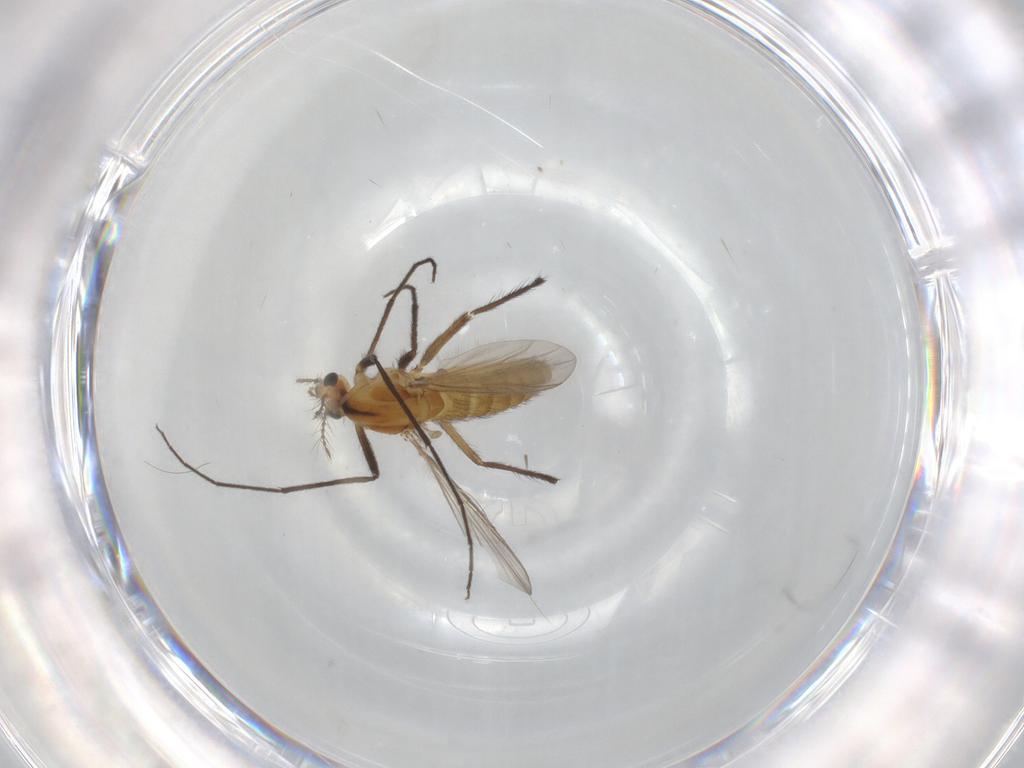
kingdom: Animalia
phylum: Arthropoda
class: Insecta
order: Diptera
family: Chironomidae
